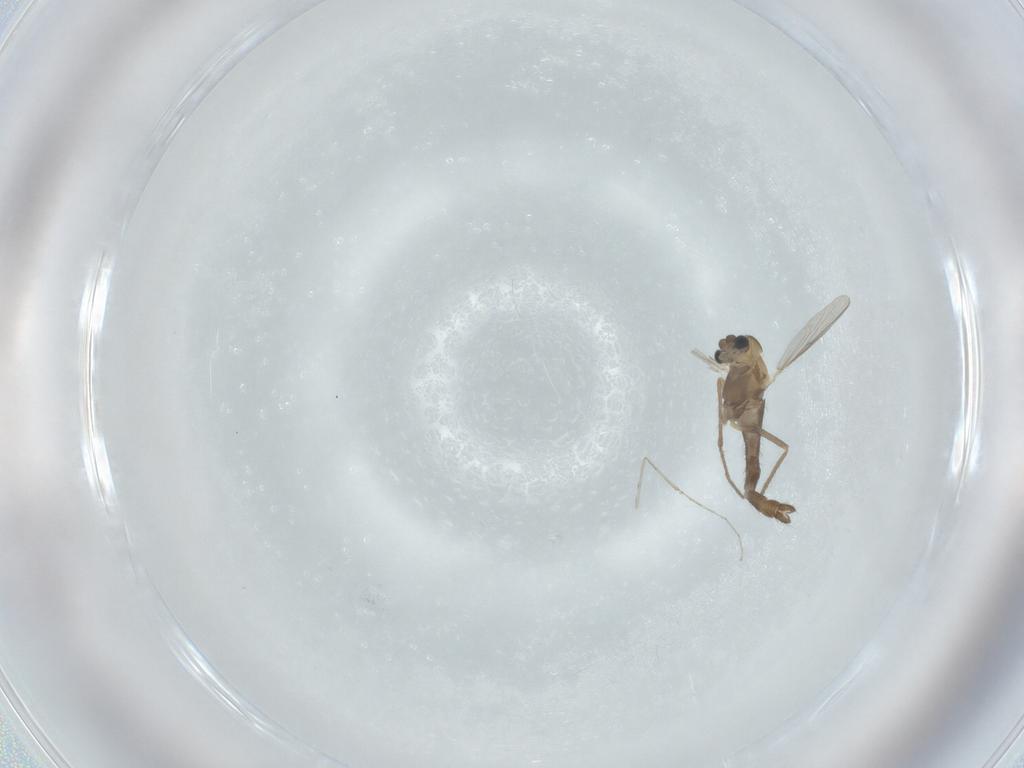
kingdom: Animalia
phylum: Arthropoda
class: Insecta
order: Diptera
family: Chironomidae
